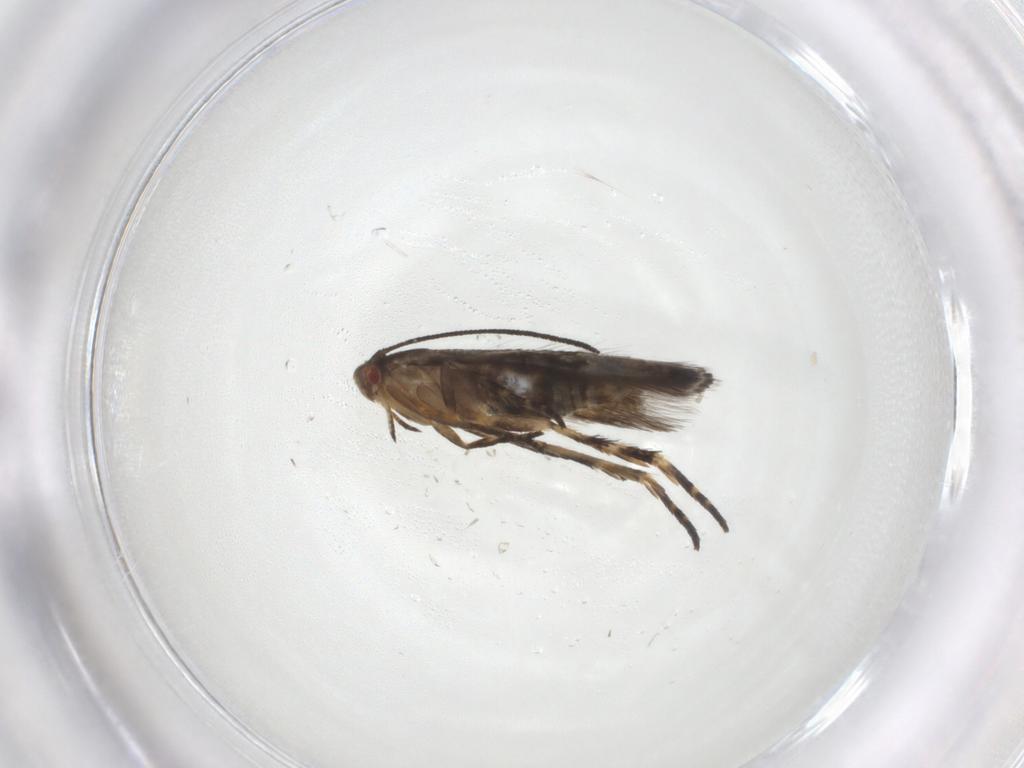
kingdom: Animalia
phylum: Arthropoda
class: Insecta
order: Lepidoptera
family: Momphidae
